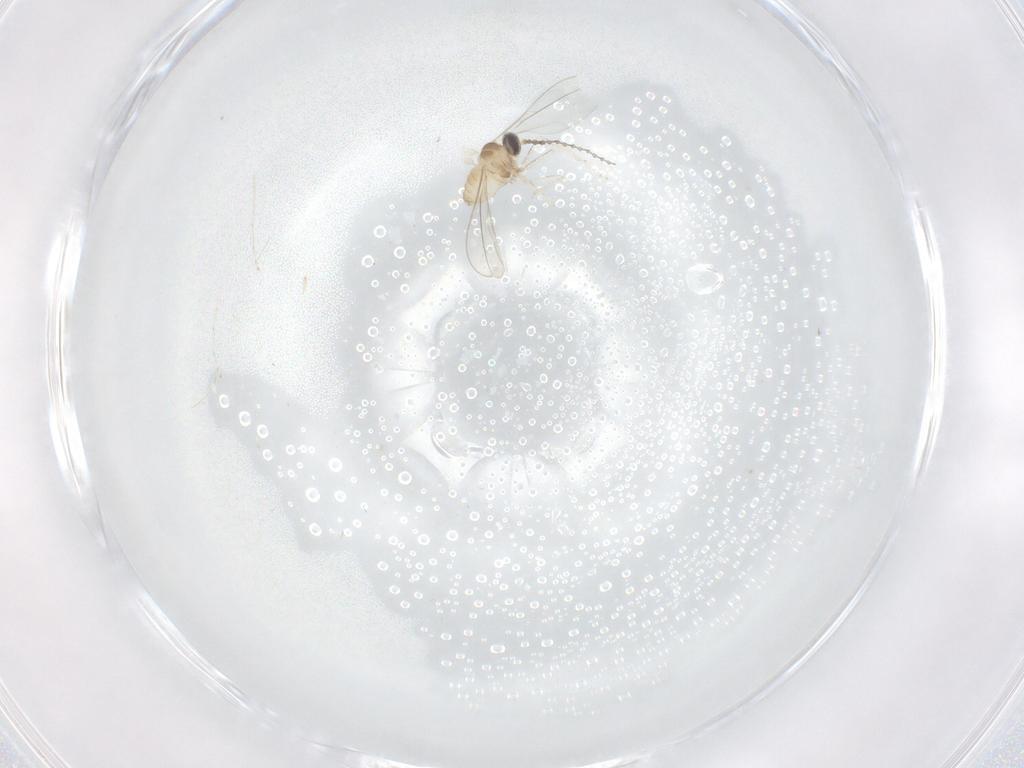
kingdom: Animalia
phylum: Arthropoda
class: Insecta
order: Diptera
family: Cecidomyiidae
